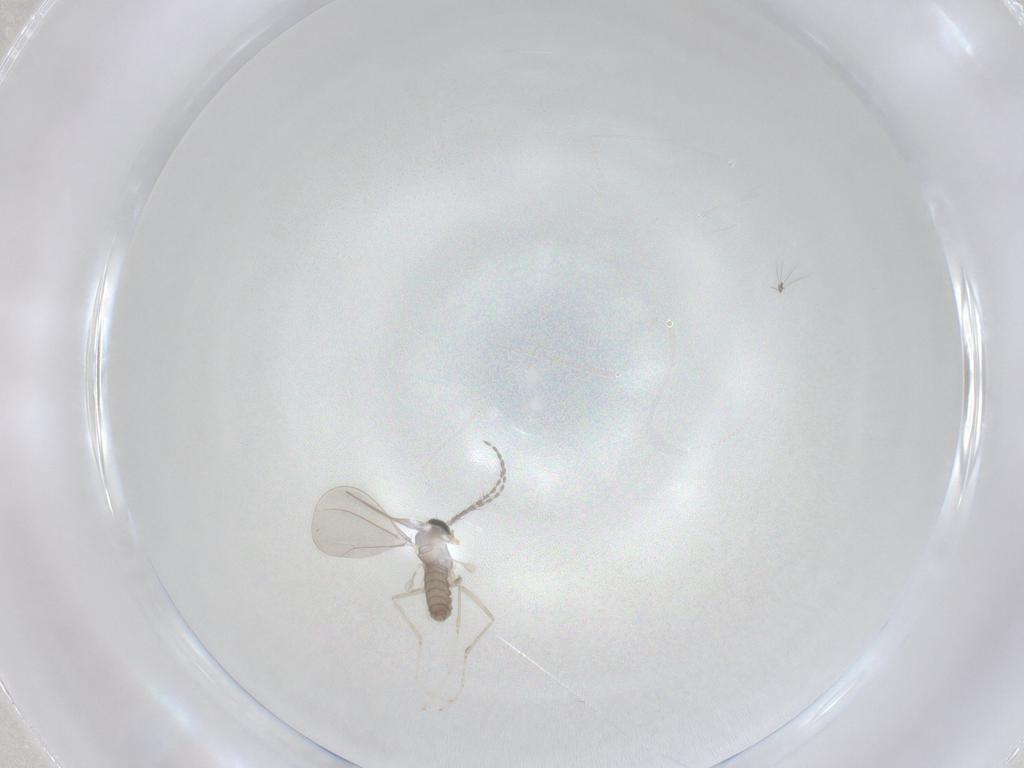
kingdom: Animalia
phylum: Arthropoda
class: Insecta
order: Diptera
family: Cecidomyiidae
